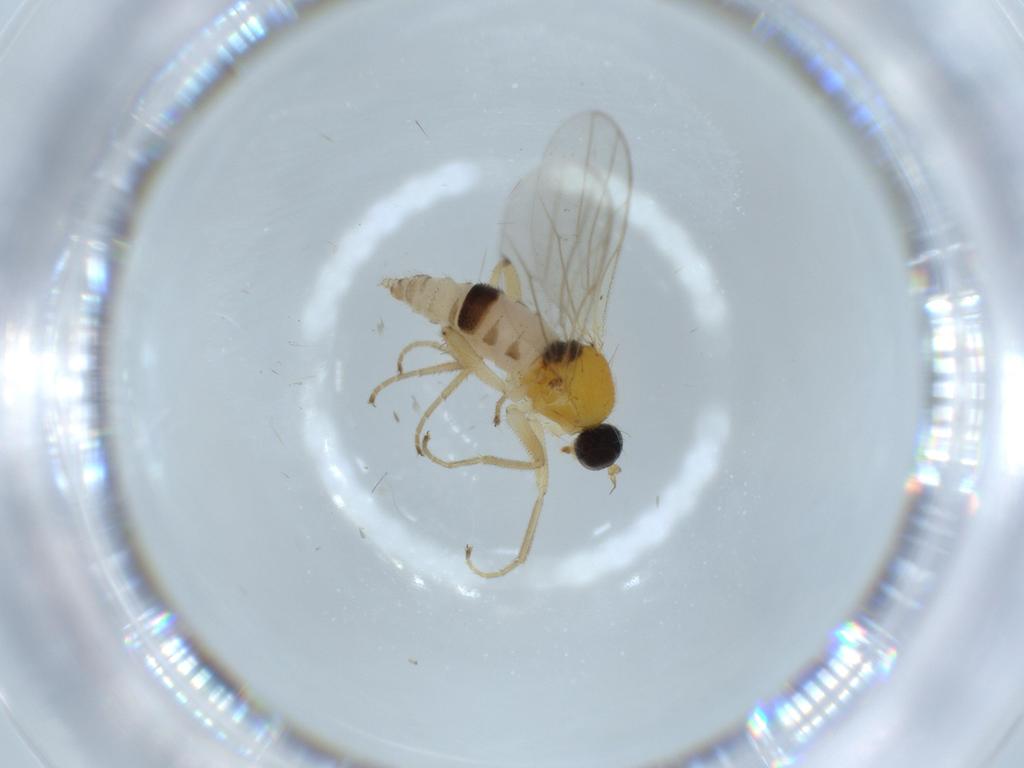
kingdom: Animalia
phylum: Arthropoda
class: Insecta
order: Diptera
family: Hybotidae
